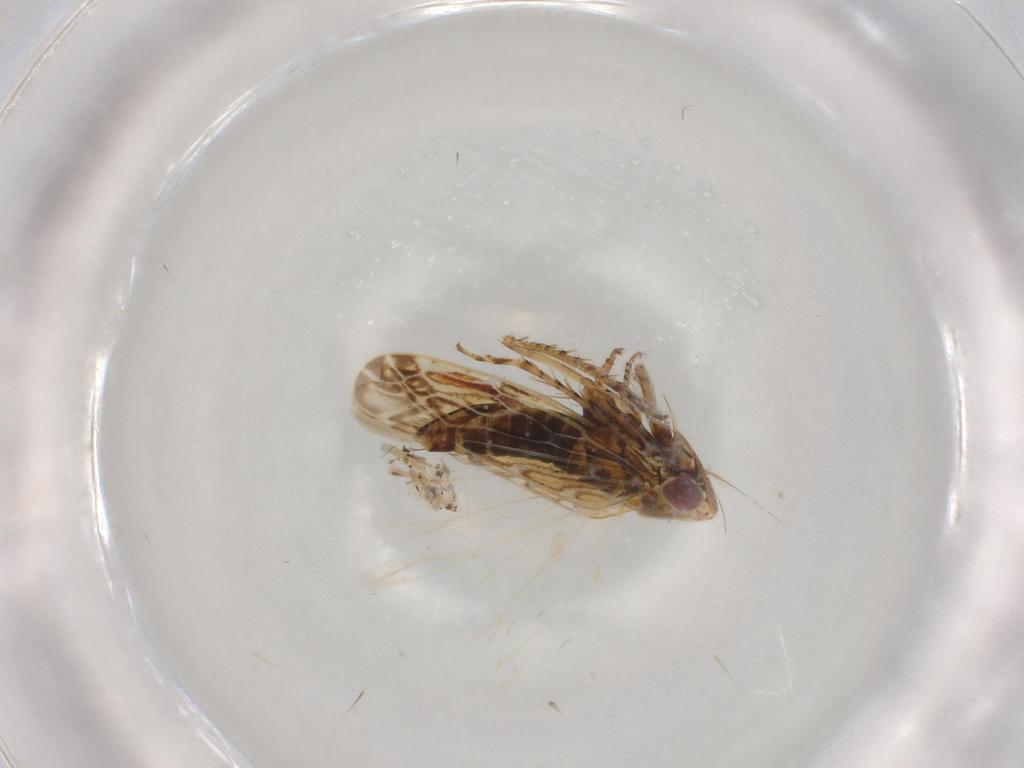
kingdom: Animalia
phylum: Arthropoda
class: Insecta
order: Hemiptera
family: Cicadellidae
